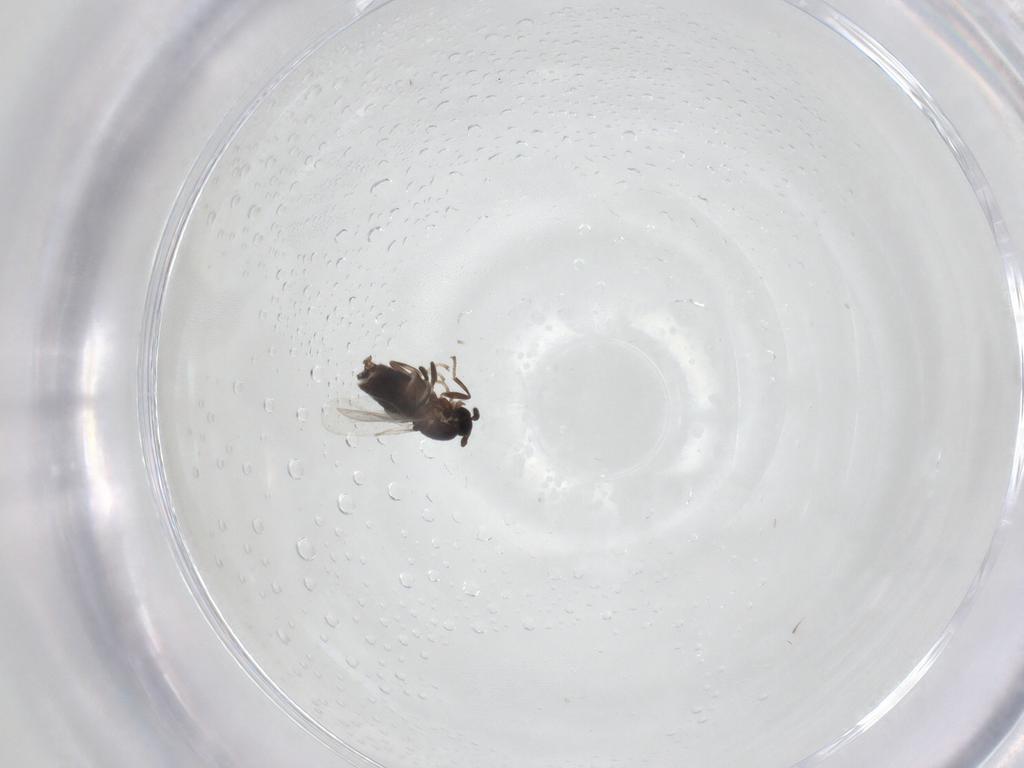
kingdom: Animalia
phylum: Arthropoda
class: Insecta
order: Diptera
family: Scatopsidae
